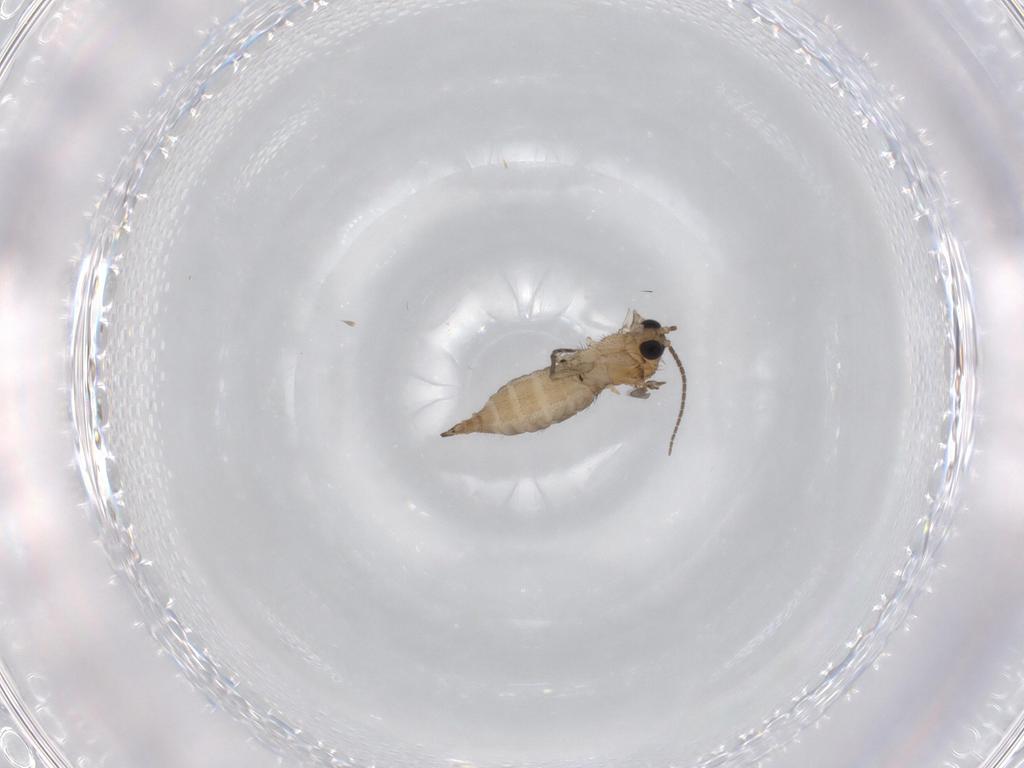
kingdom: Animalia
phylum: Arthropoda
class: Insecta
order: Diptera
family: Sciaridae
